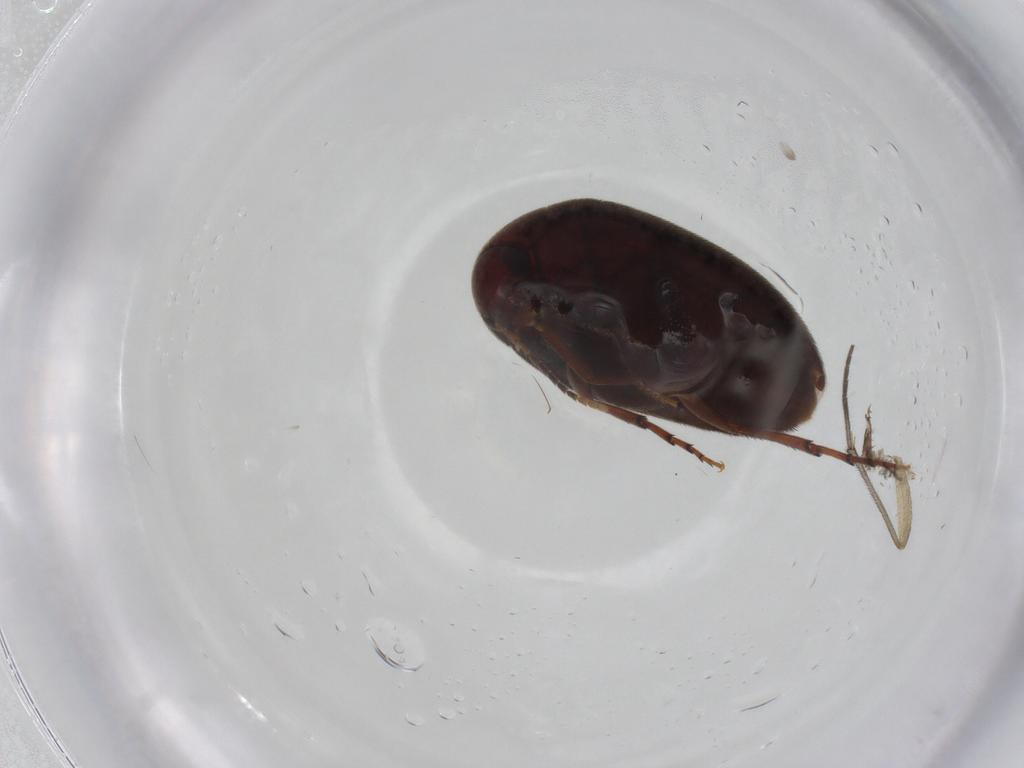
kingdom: Animalia
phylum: Arthropoda
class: Insecta
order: Coleoptera
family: Eucinetidae
